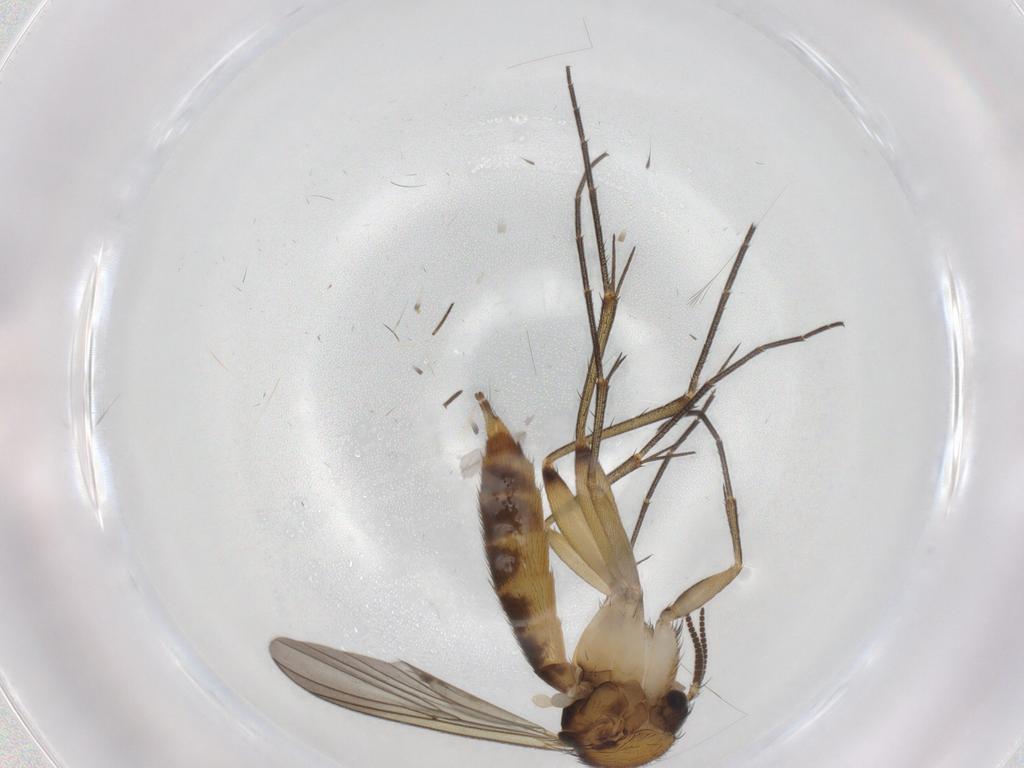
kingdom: Animalia
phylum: Arthropoda
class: Insecta
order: Diptera
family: Mycetophilidae
